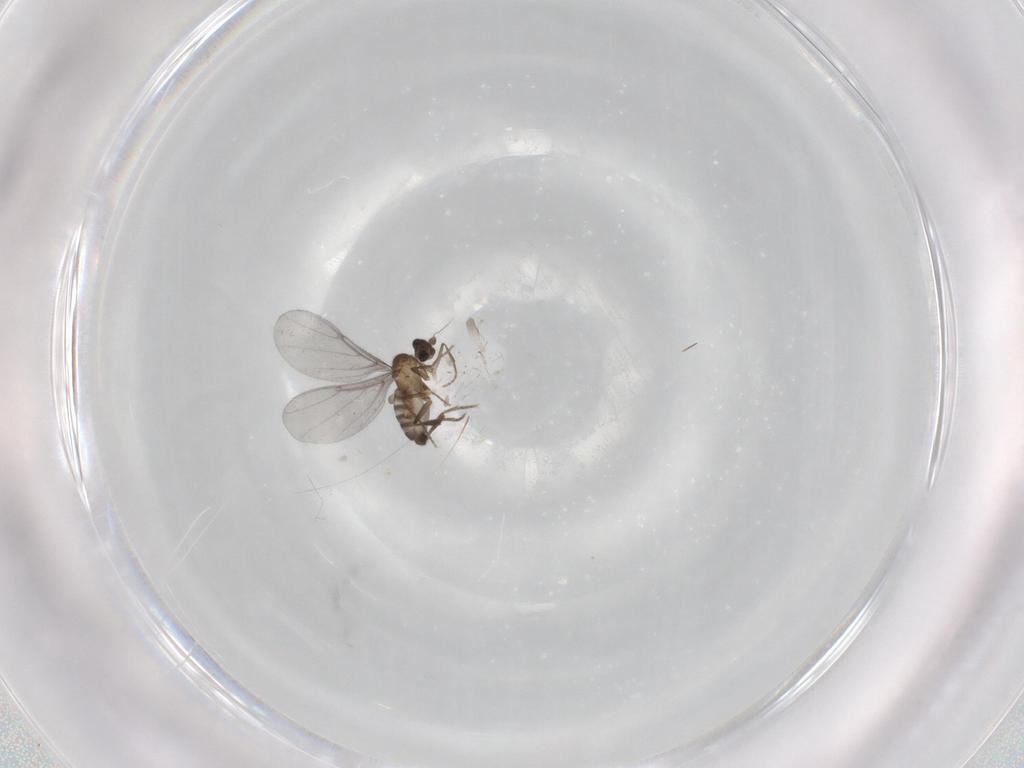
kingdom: Animalia
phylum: Arthropoda
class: Insecta
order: Diptera
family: Phoridae
